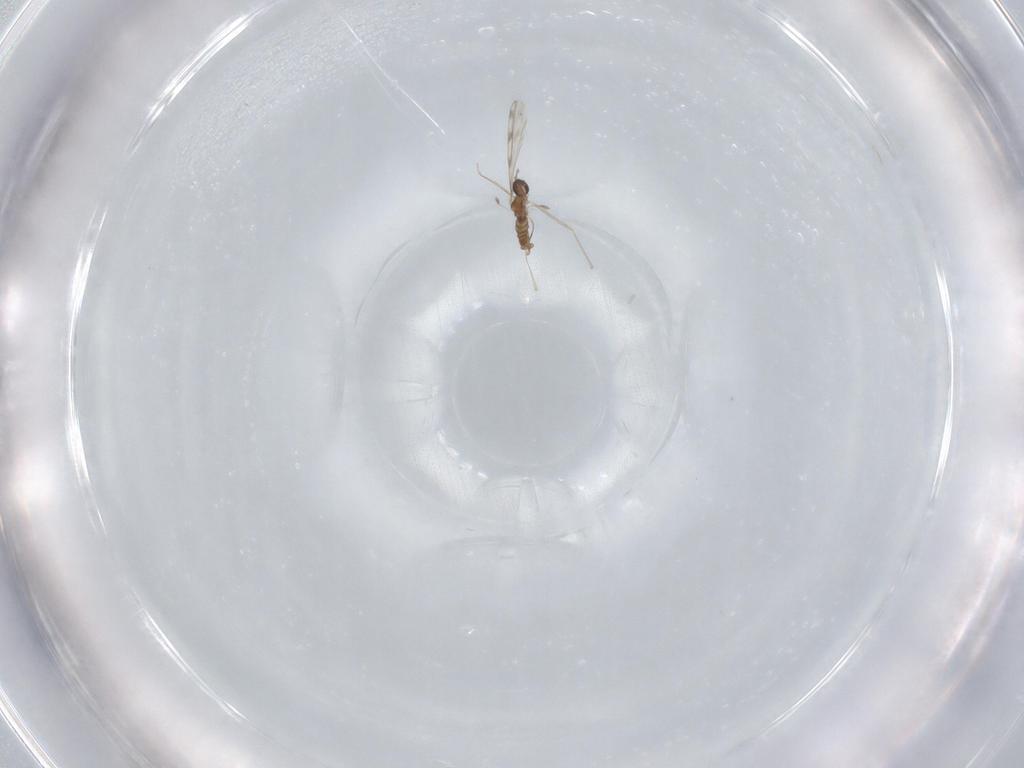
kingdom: Animalia
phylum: Arthropoda
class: Insecta
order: Diptera
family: Cecidomyiidae
